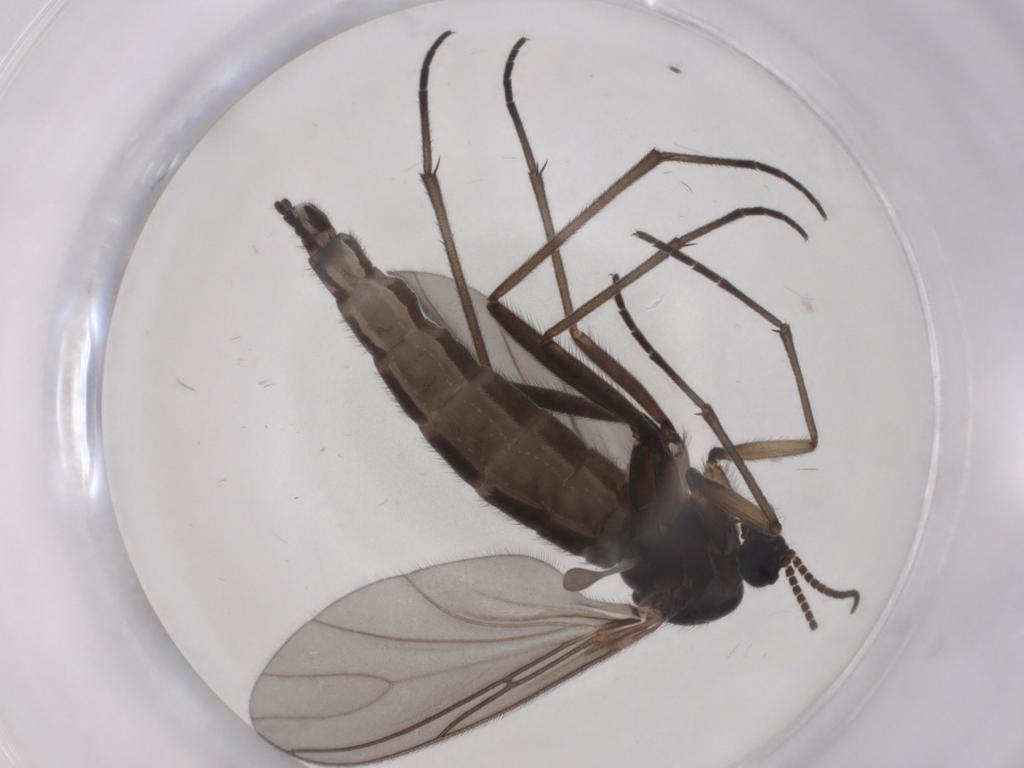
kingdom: Animalia
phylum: Arthropoda
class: Insecta
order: Diptera
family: Sciaridae
